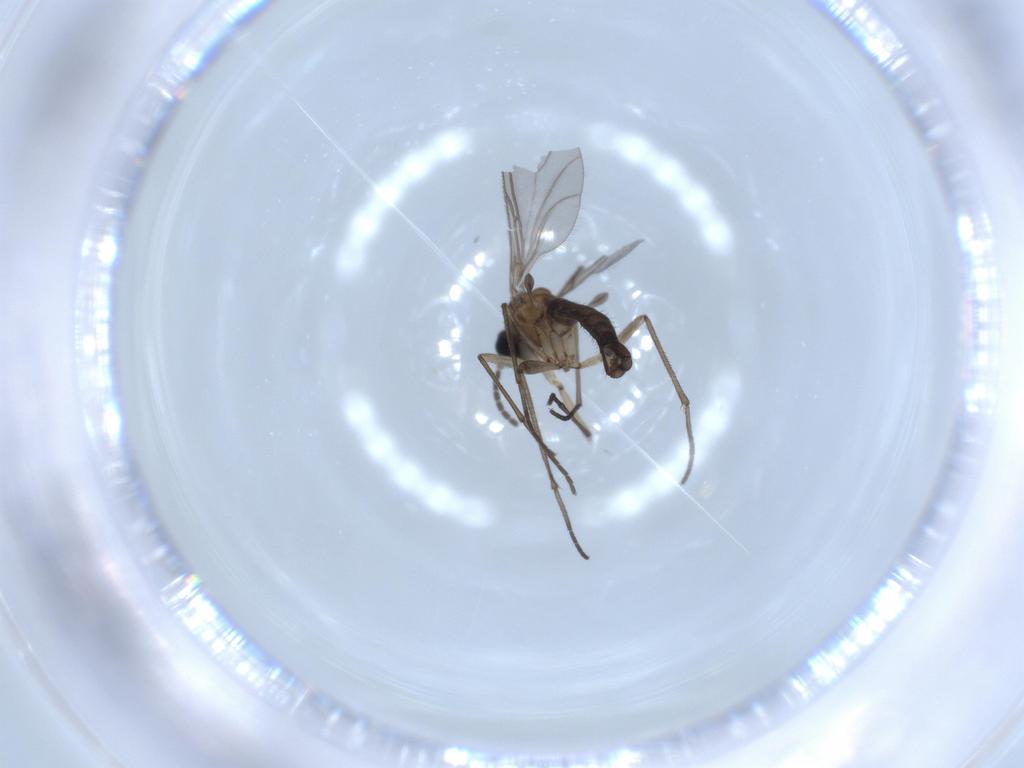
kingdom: Animalia
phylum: Arthropoda
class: Insecta
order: Diptera
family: Sciaridae
